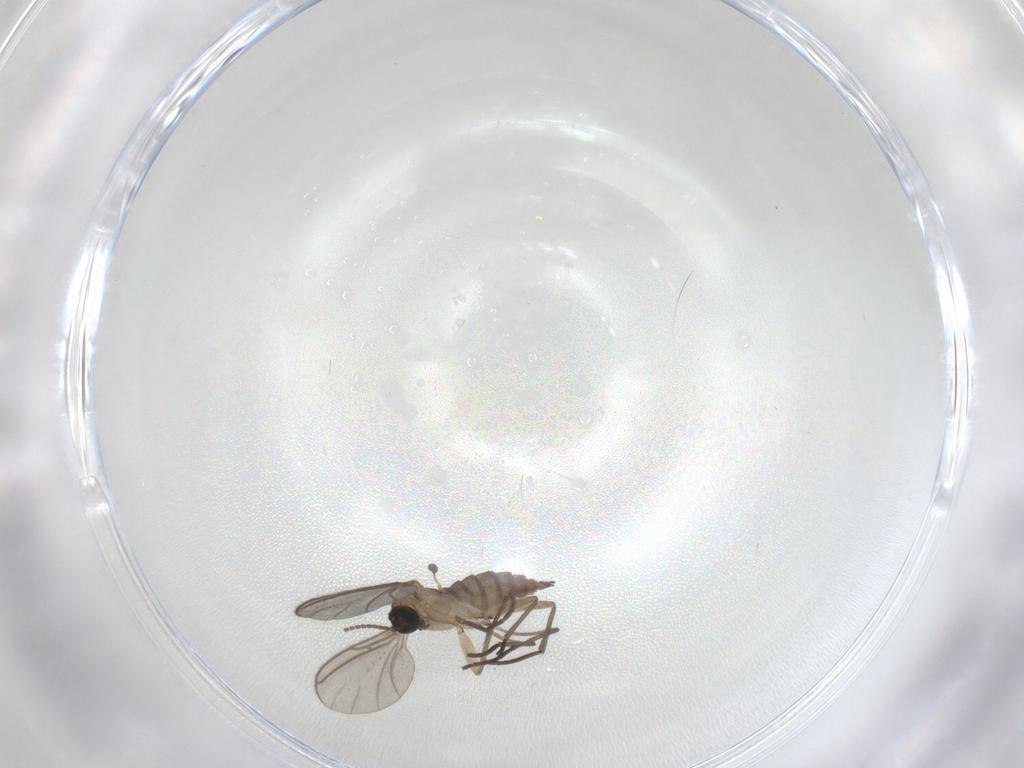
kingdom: Animalia
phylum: Arthropoda
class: Insecta
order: Diptera
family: Sciaridae
